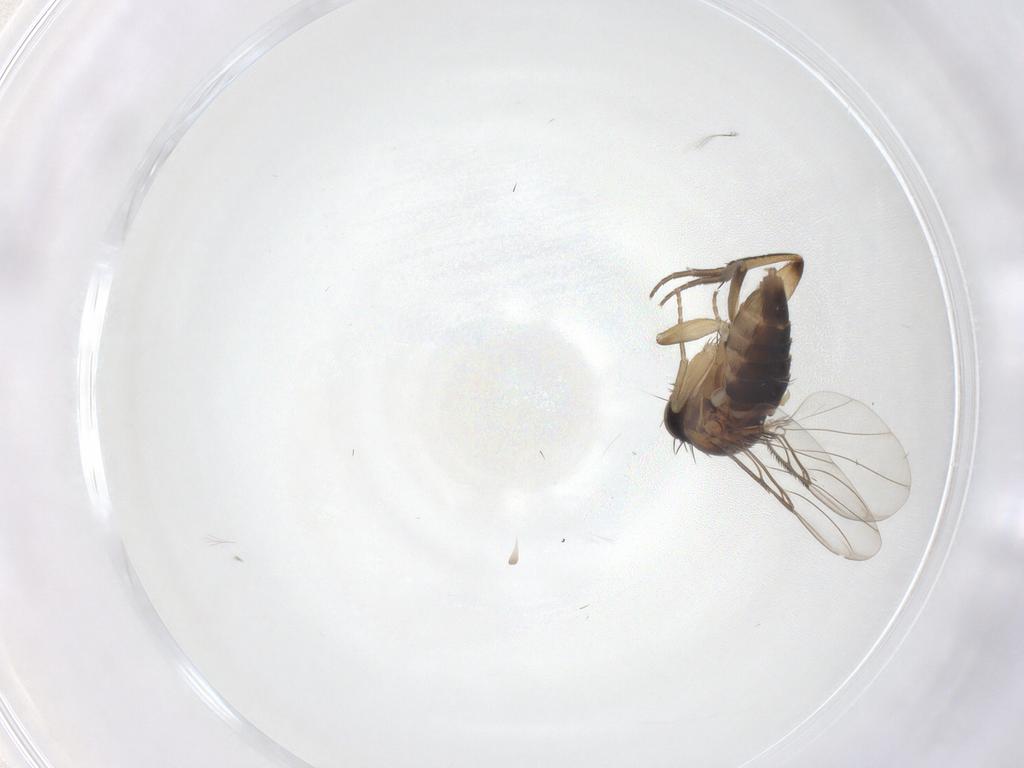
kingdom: Animalia
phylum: Arthropoda
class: Insecta
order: Diptera
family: Phoridae
